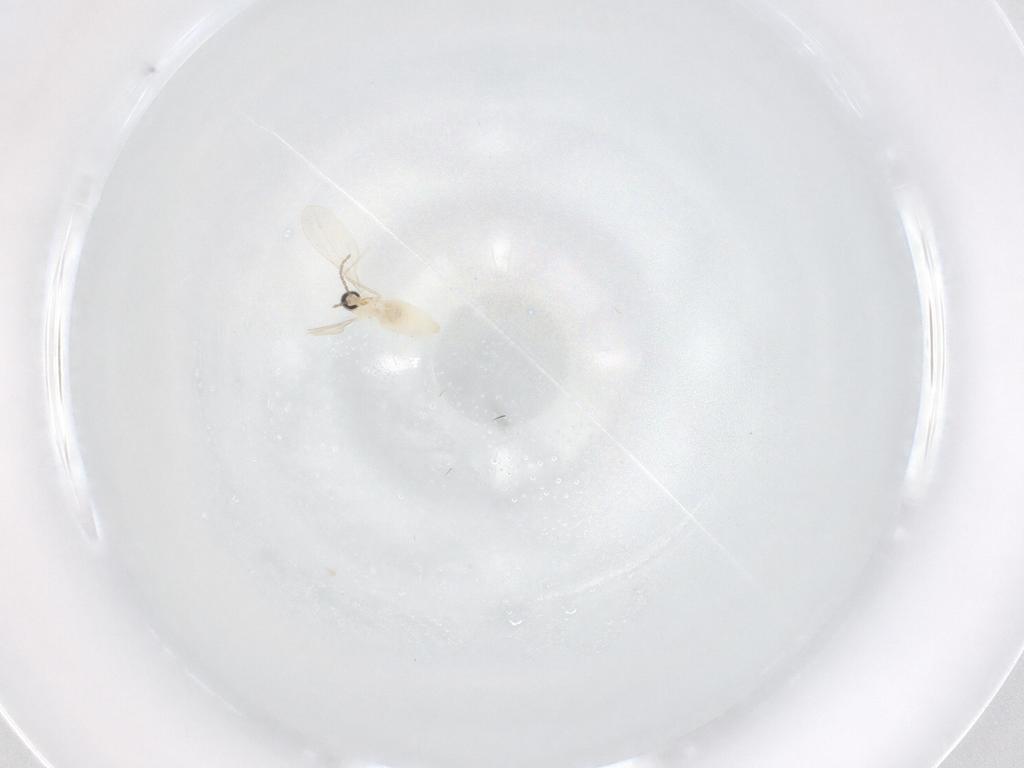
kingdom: Animalia
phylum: Arthropoda
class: Insecta
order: Diptera
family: Cecidomyiidae
